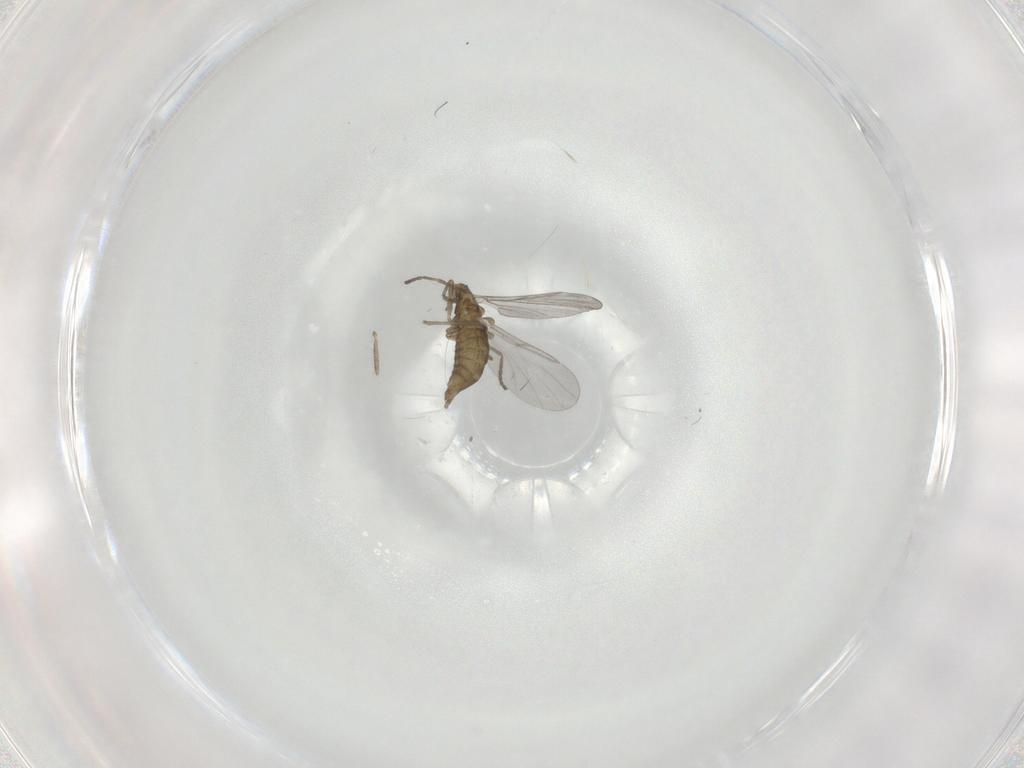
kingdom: Animalia
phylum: Arthropoda
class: Insecta
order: Diptera
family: Cecidomyiidae
